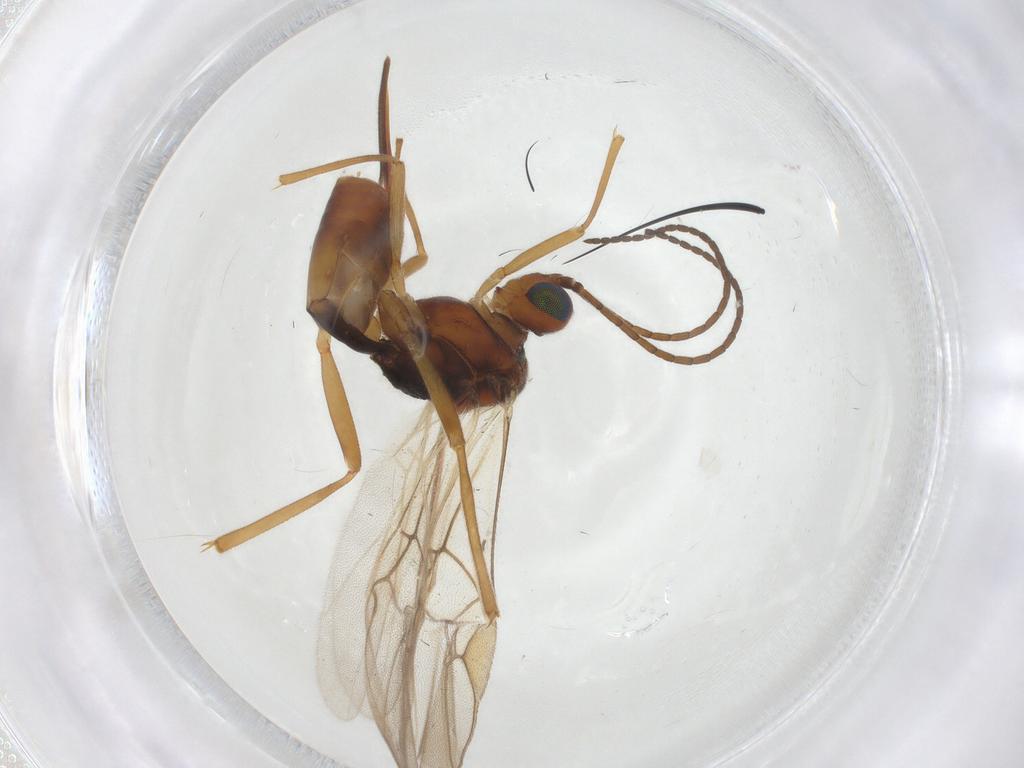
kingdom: Animalia
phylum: Arthropoda
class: Insecta
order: Hymenoptera
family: Braconidae
